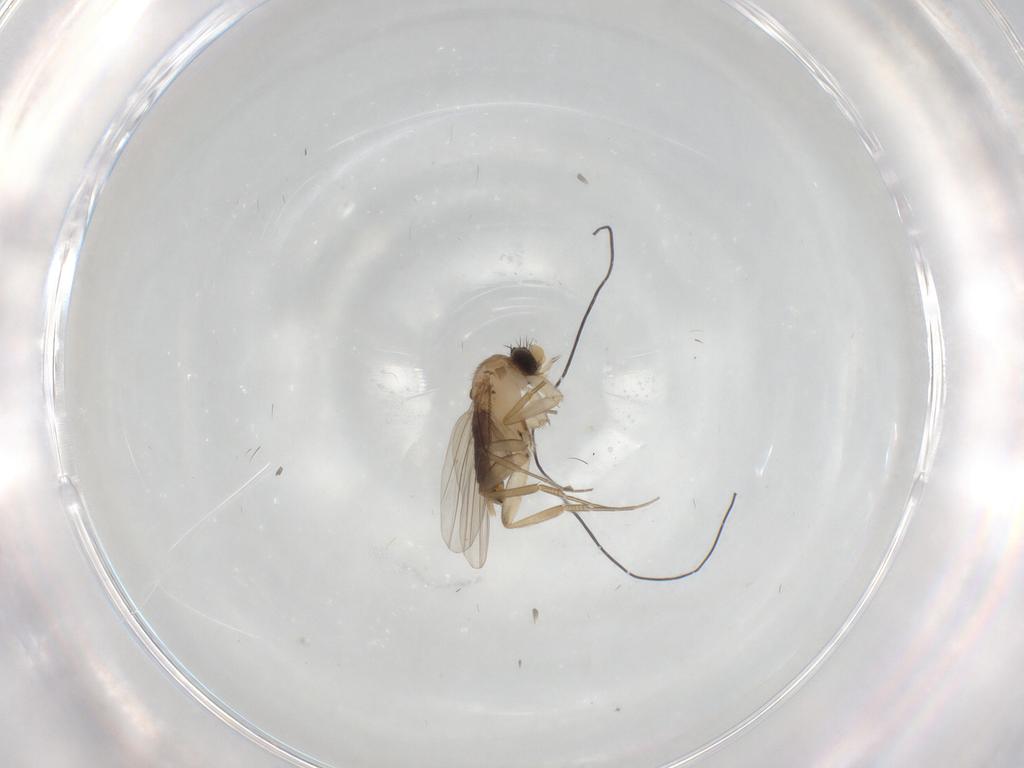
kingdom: Animalia
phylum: Arthropoda
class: Insecta
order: Diptera
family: Phoridae
